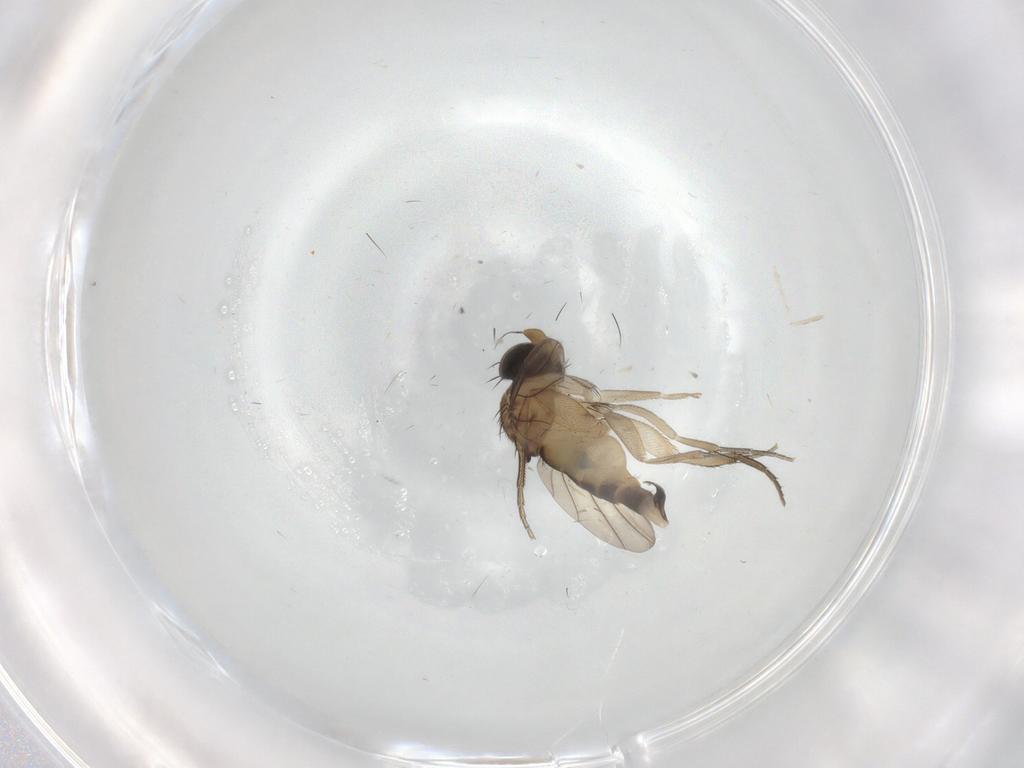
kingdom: Animalia
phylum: Arthropoda
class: Insecta
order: Diptera
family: Phoridae
